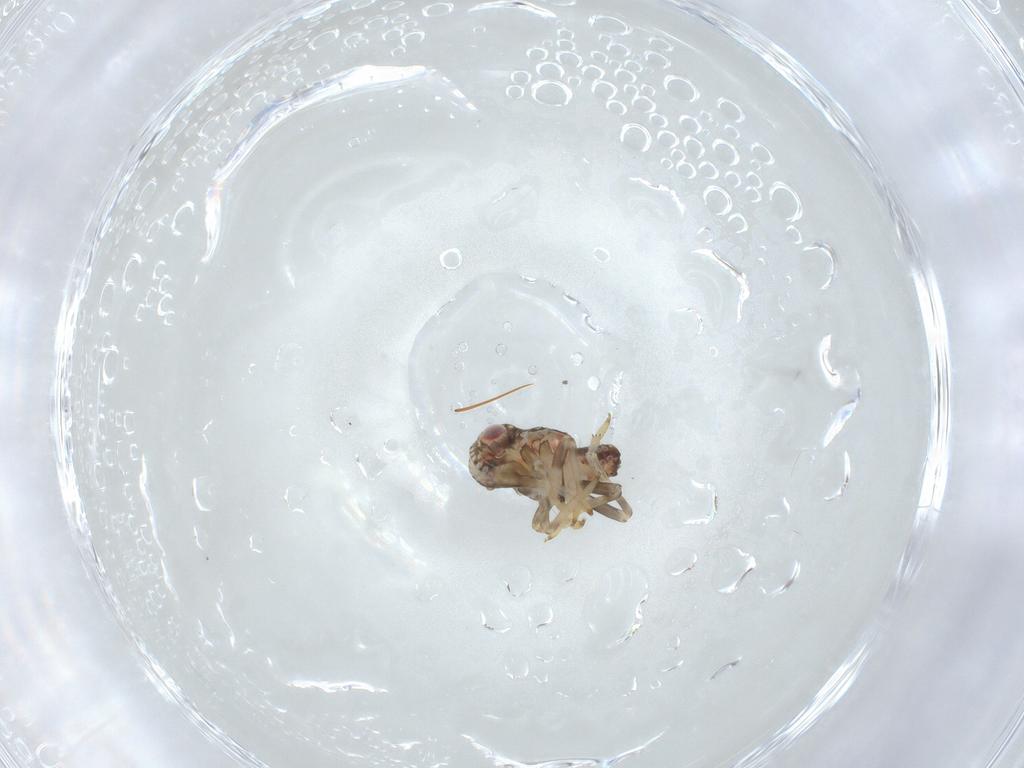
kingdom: Animalia
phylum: Arthropoda
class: Insecta
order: Hemiptera
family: Tropiduchidae
